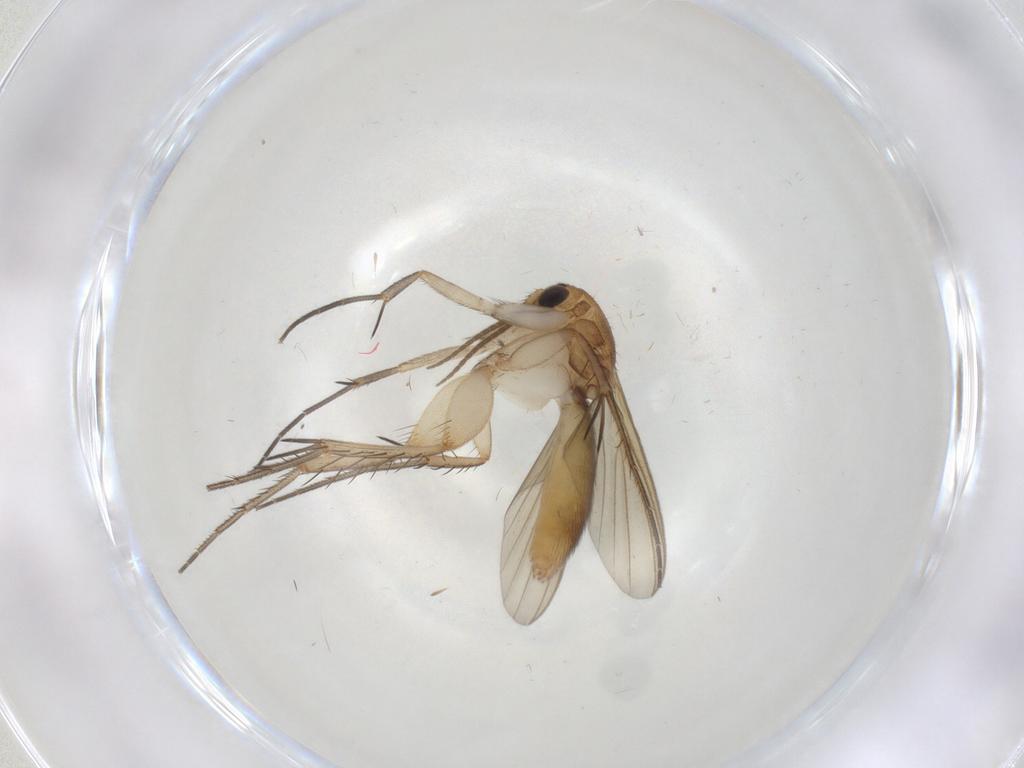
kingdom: Animalia
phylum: Arthropoda
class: Insecta
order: Diptera
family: Mycetophilidae
